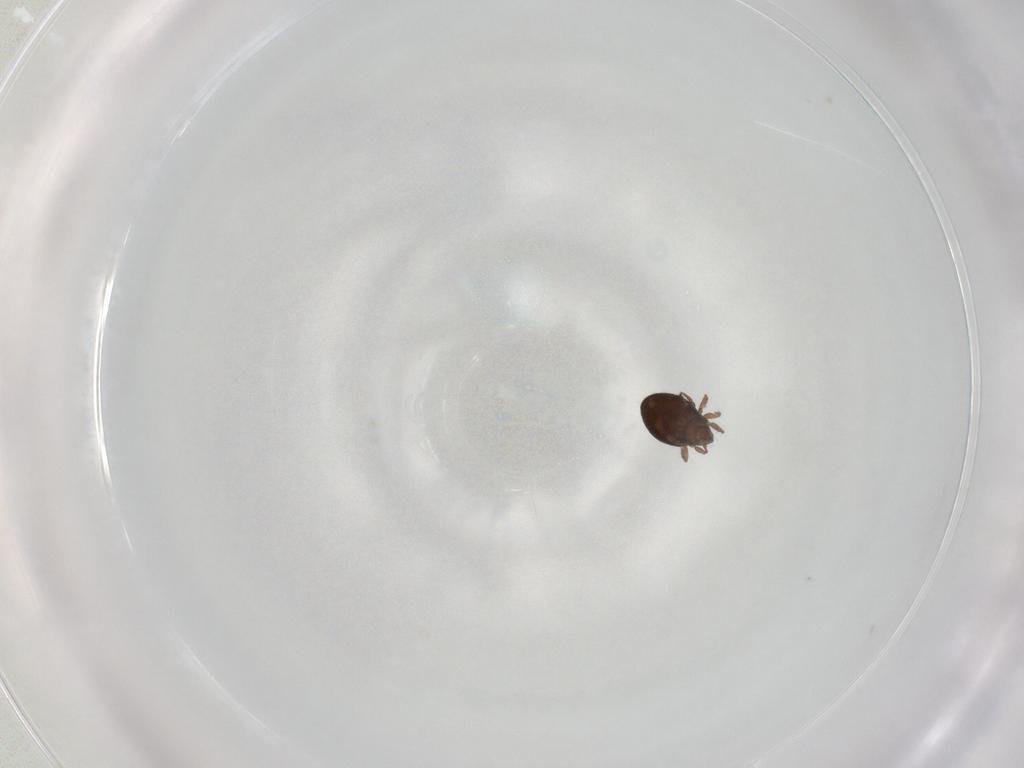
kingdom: Animalia
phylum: Arthropoda
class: Arachnida
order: Sarcoptiformes
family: Oribatulidae
